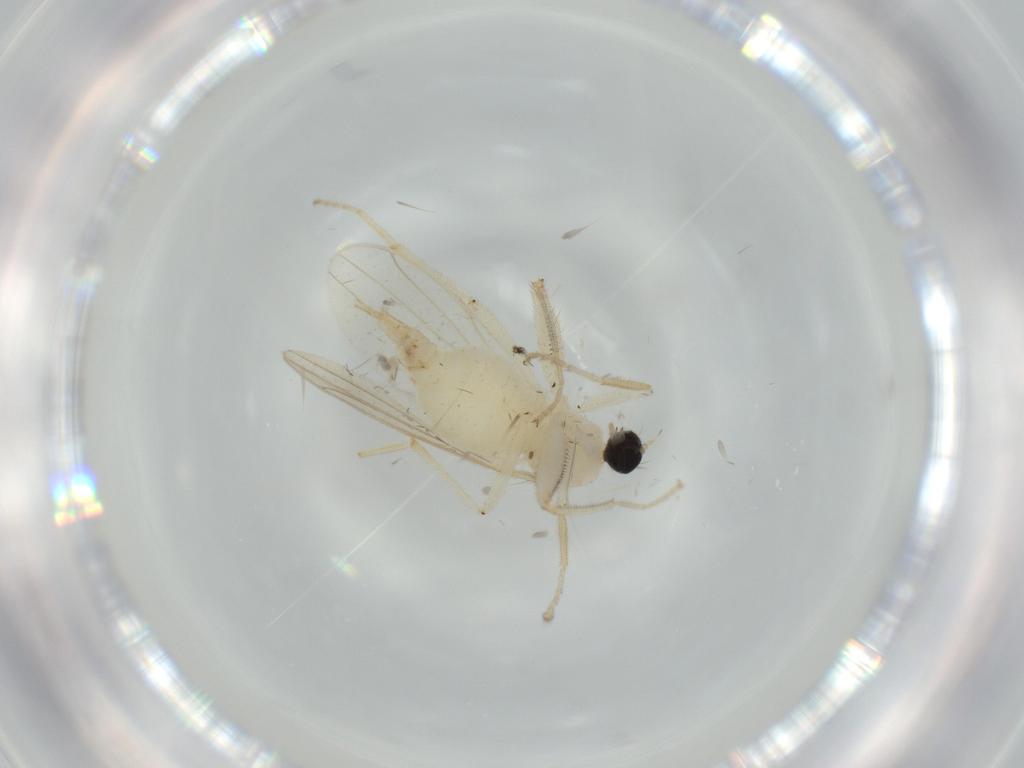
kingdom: Animalia
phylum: Arthropoda
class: Insecta
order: Diptera
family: Hybotidae
